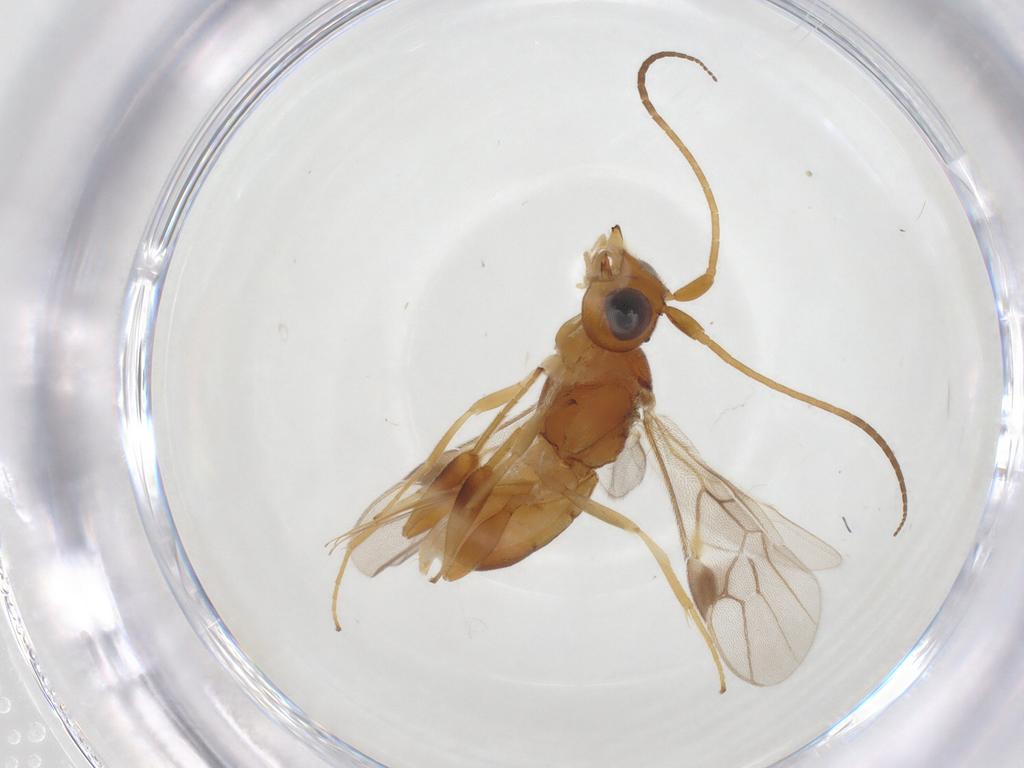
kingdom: Animalia
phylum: Arthropoda
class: Insecta
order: Hymenoptera
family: Braconidae
